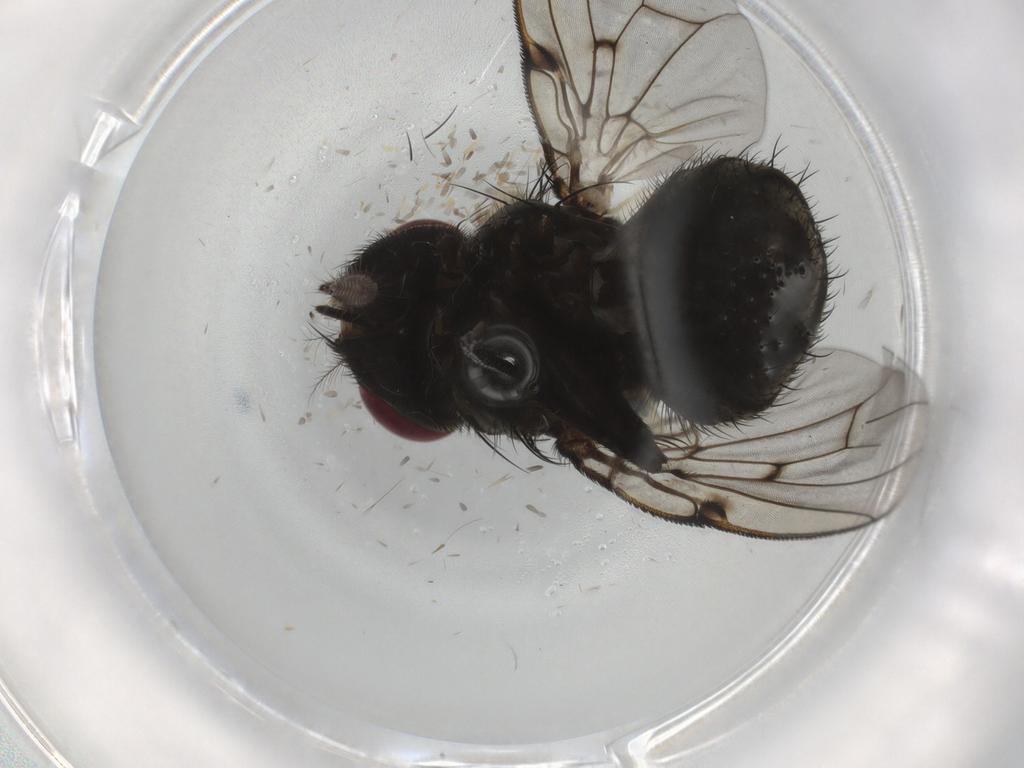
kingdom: Animalia
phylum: Arthropoda
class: Insecta
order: Diptera
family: Muscidae
